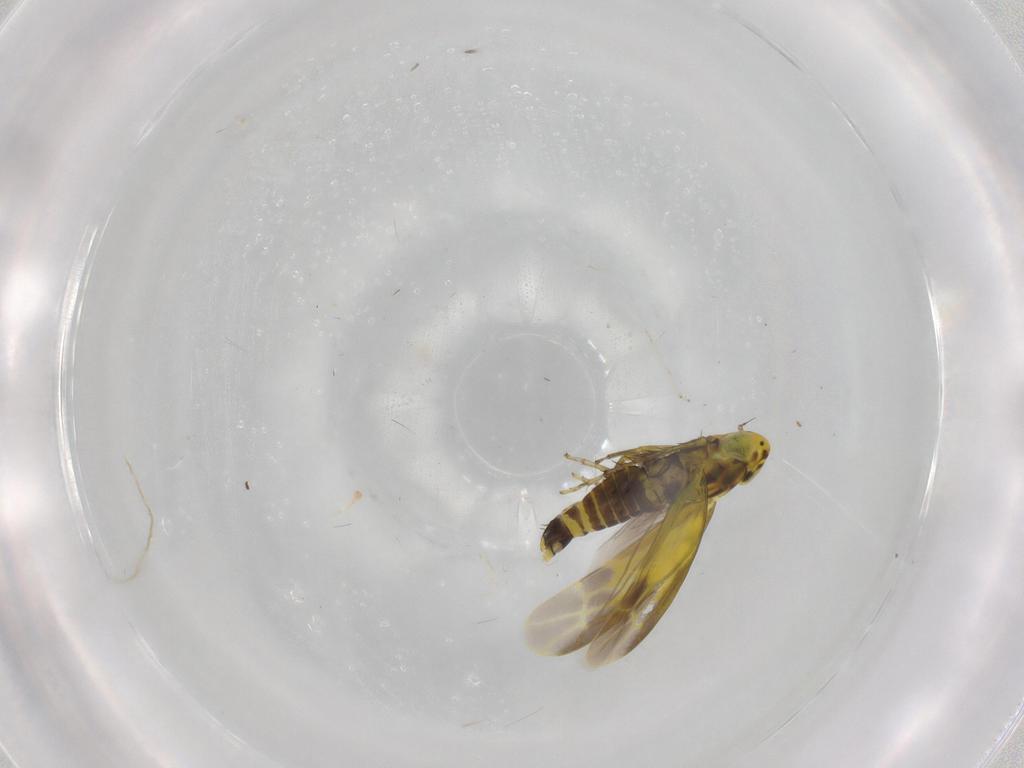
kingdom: Animalia
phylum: Arthropoda
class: Insecta
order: Hemiptera
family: Cicadellidae
